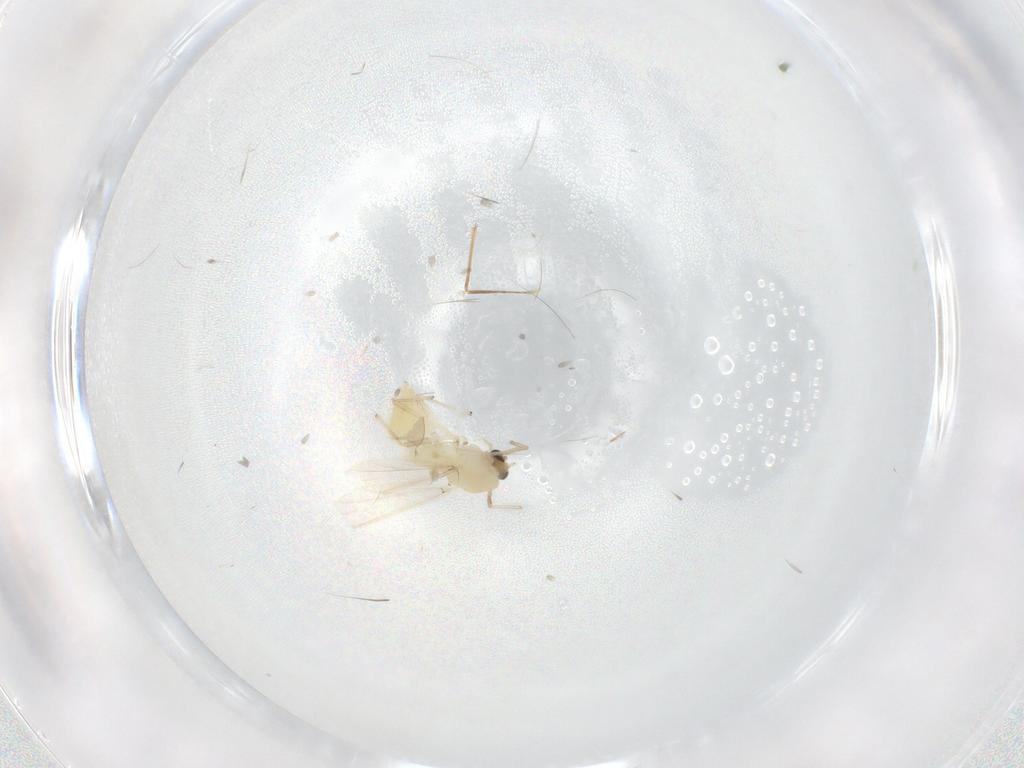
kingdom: Animalia
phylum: Arthropoda
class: Insecta
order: Diptera
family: Chironomidae
